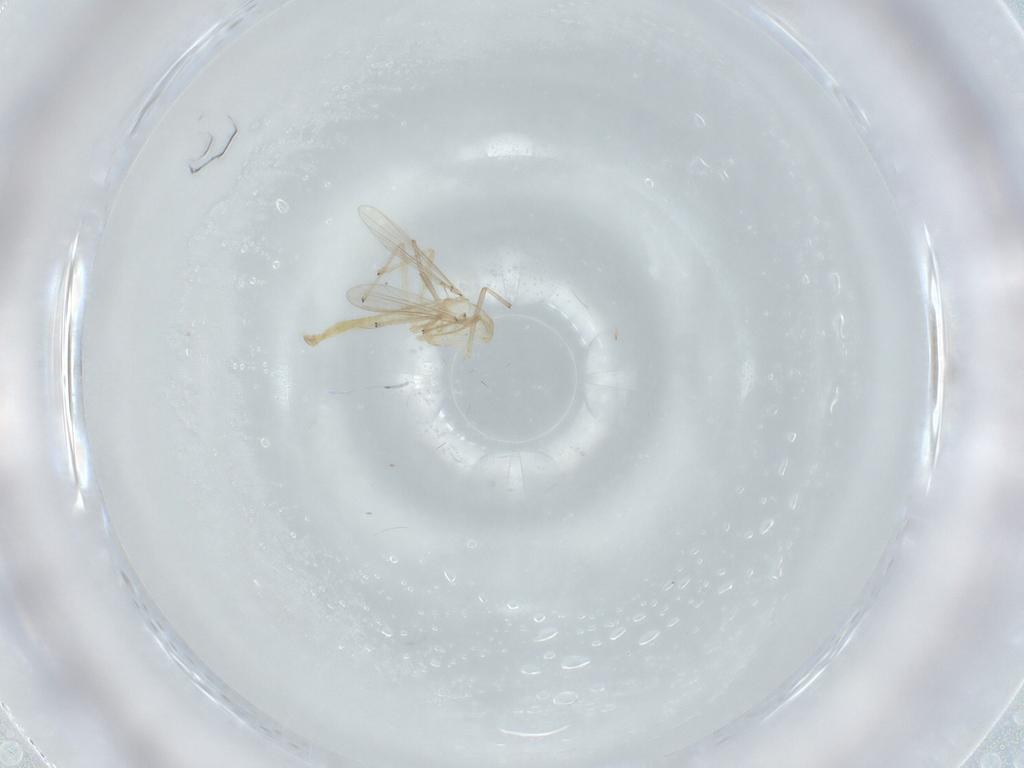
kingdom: Animalia
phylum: Arthropoda
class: Insecta
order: Diptera
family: Chironomidae
